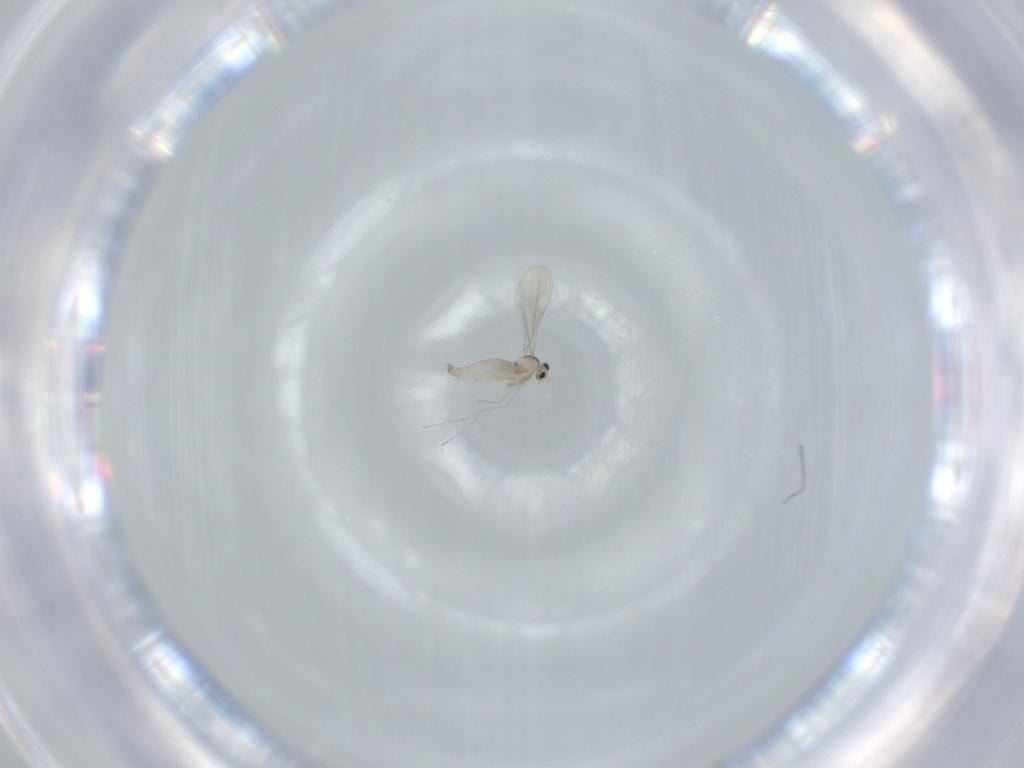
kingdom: Animalia
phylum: Arthropoda
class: Insecta
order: Diptera
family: Cecidomyiidae
